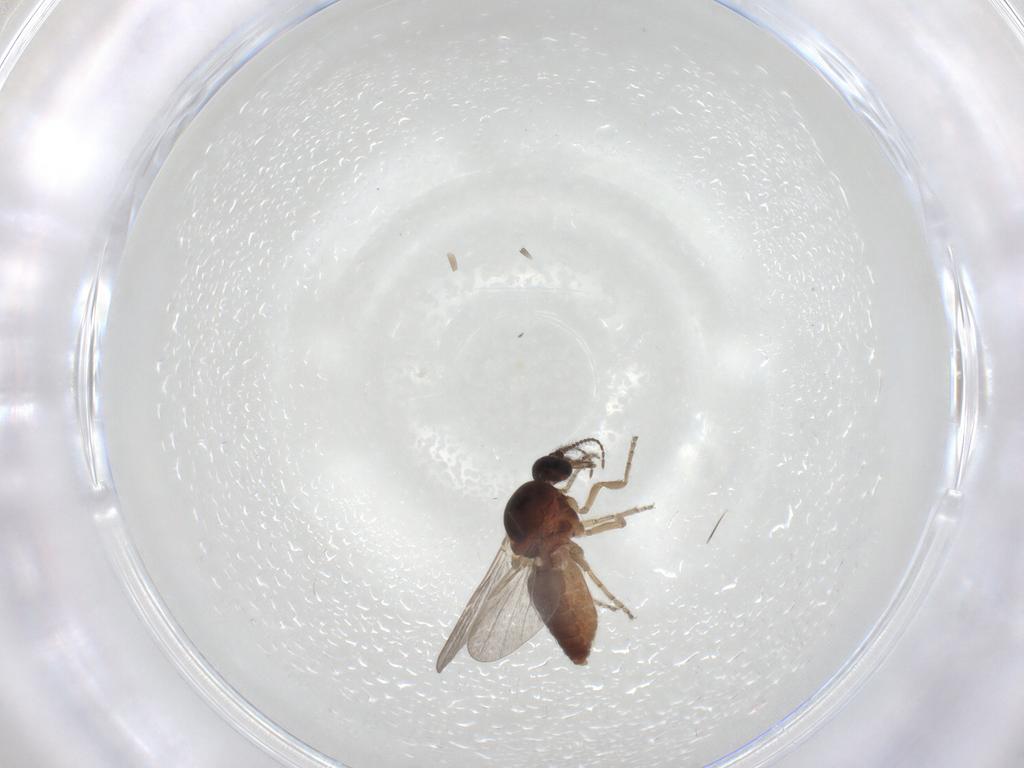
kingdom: Animalia
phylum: Arthropoda
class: Insecta
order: Diptera
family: Ceratopogonidae
